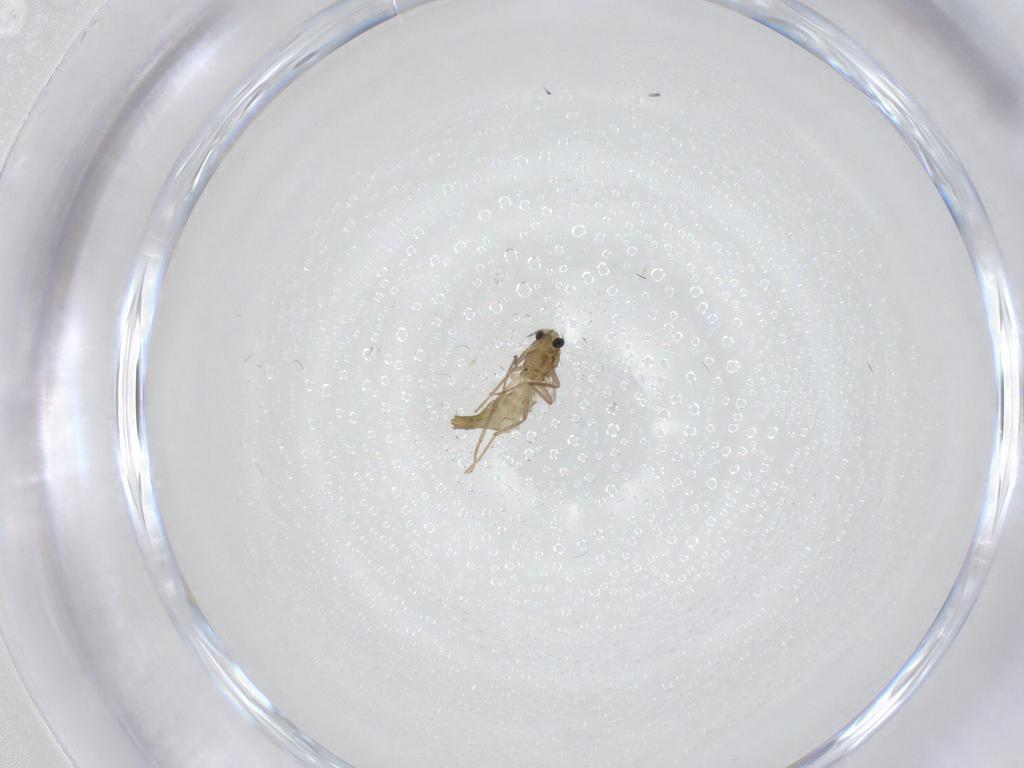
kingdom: Animalia
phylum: Arthropoda
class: Insecta
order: Diptera
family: Chironomidae
